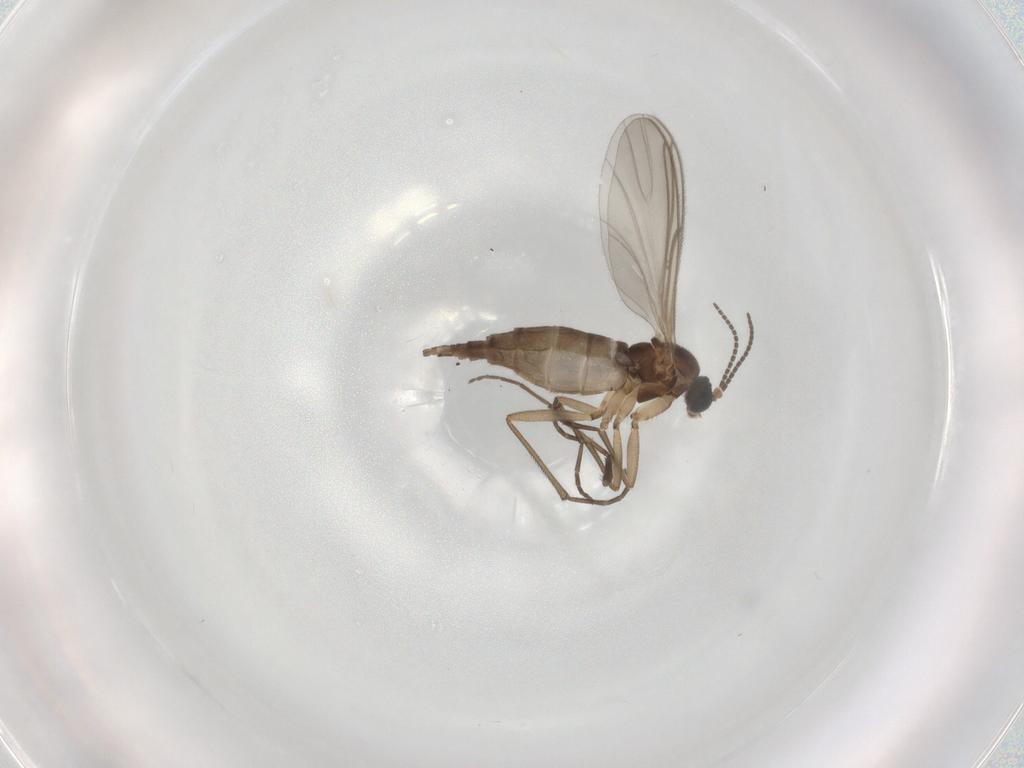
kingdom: Animalia
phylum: Arthropoda
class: Insecta
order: Diptera
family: Sciaridae
